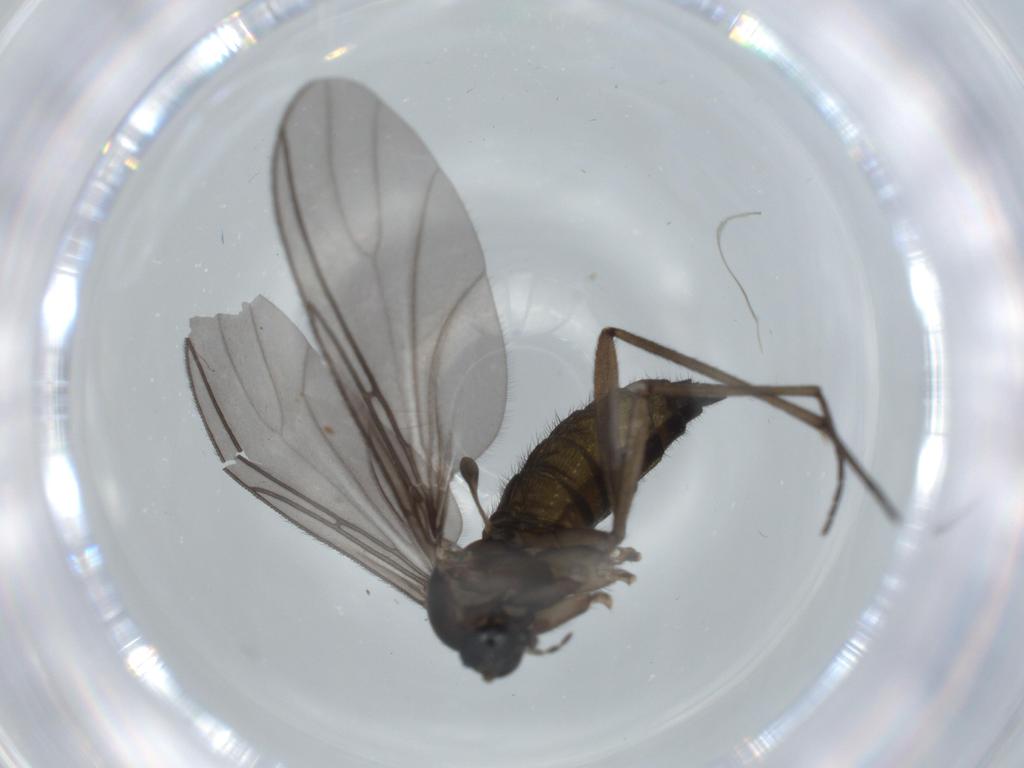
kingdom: Animalia
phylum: Arthropoda
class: Insecta
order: Diptera
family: Sciaridae
